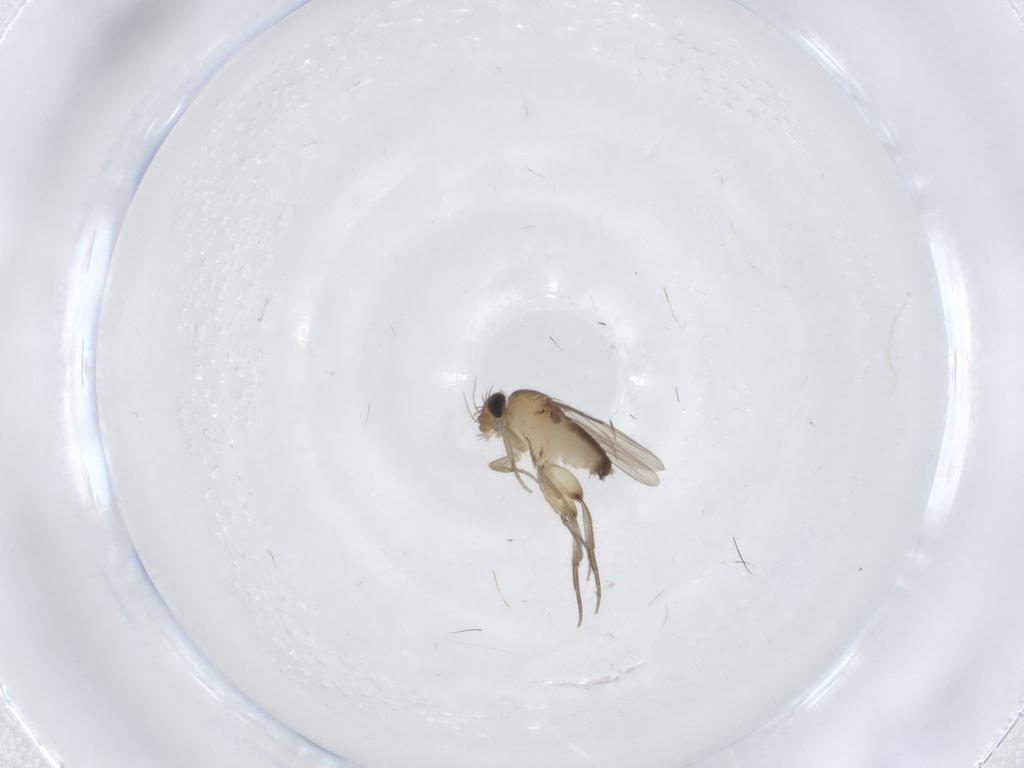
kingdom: Animalia
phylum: Arthropoda
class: Insecta
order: Diptera
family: Phoridae
